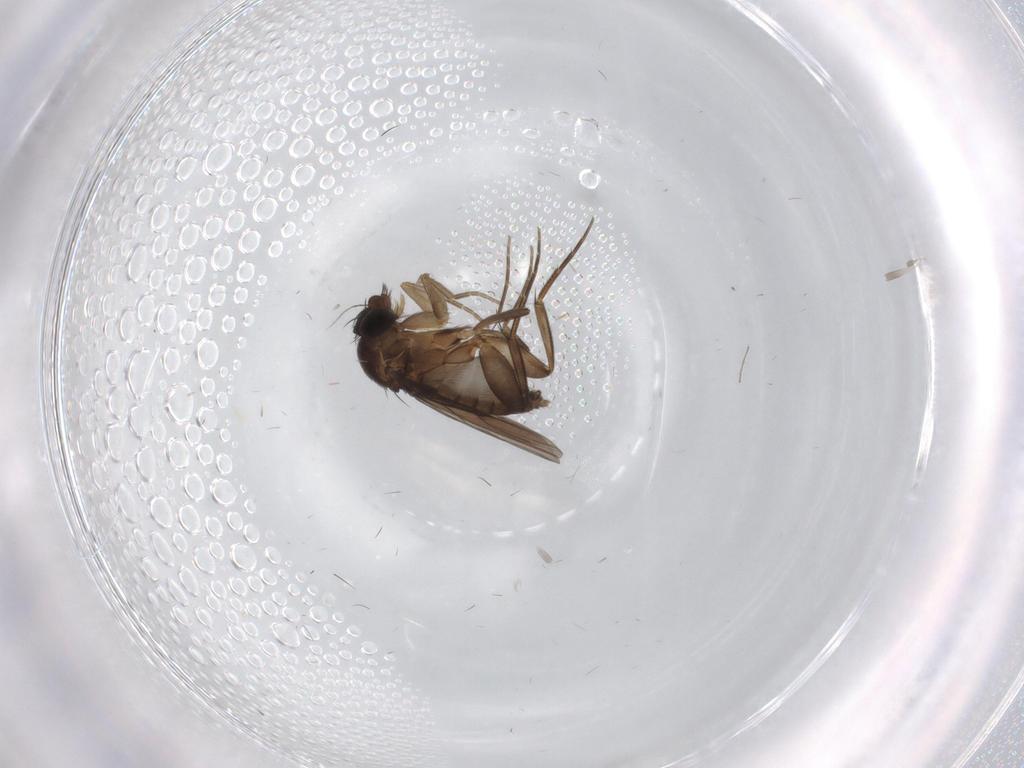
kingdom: Animalia
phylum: Arthropoda
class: Insecta
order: Diptera
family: Phoridae
